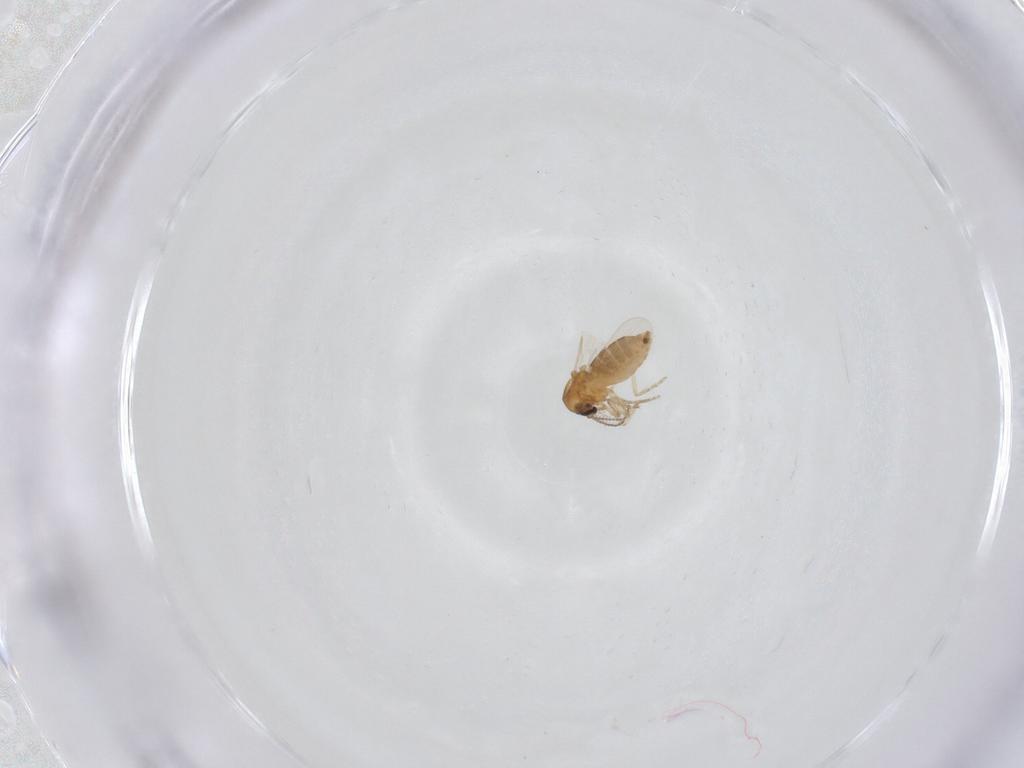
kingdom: Animalia
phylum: Arthropoda
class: Insecta
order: Diptera
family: Ceratopogonidae
